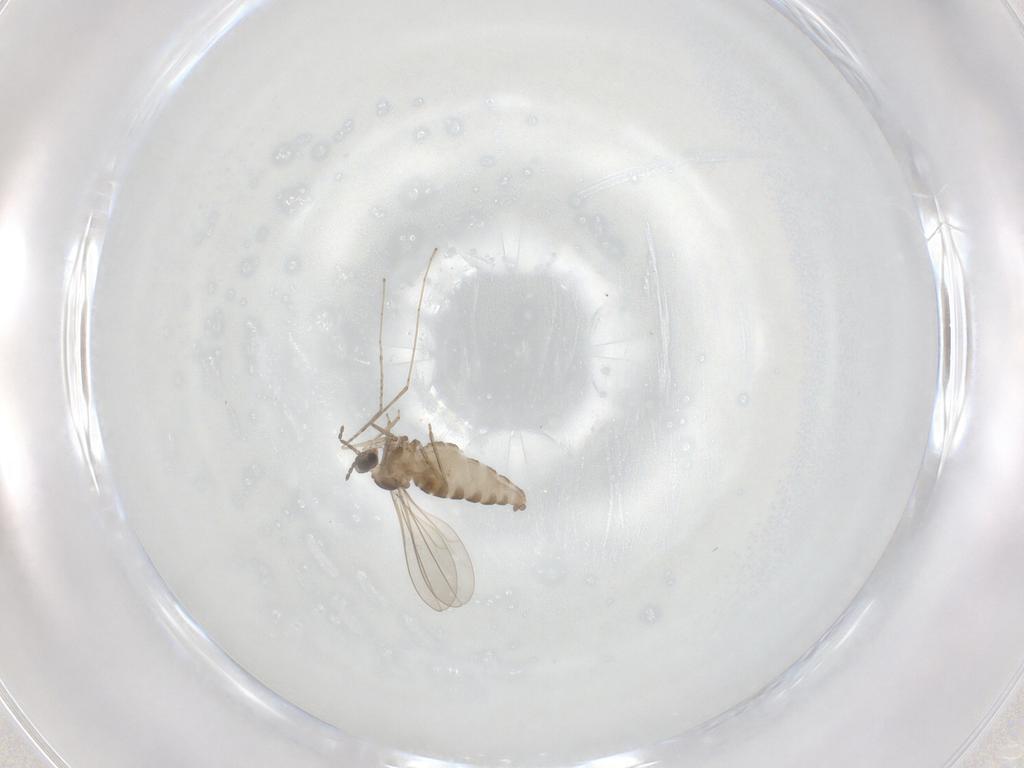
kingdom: Animalia
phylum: Arthropoda
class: Insecta
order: Diptera
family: Cecidomyiidae
